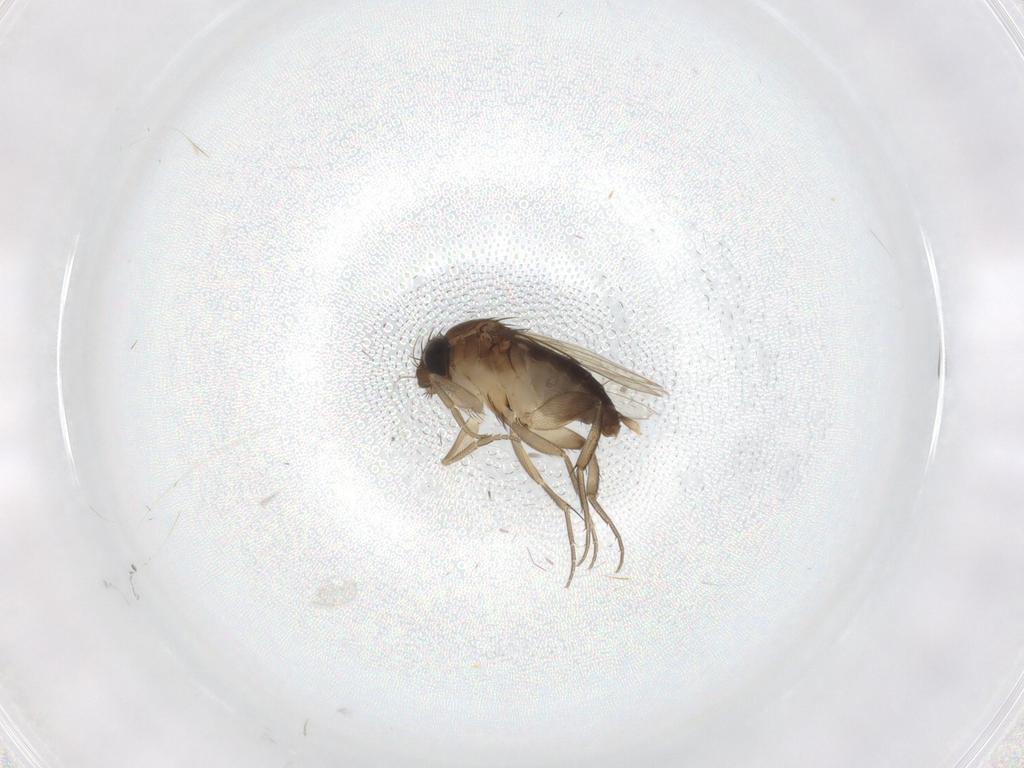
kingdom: Animalia
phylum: Arthropoda
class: Insecta
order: Diptera
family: Phoridae
